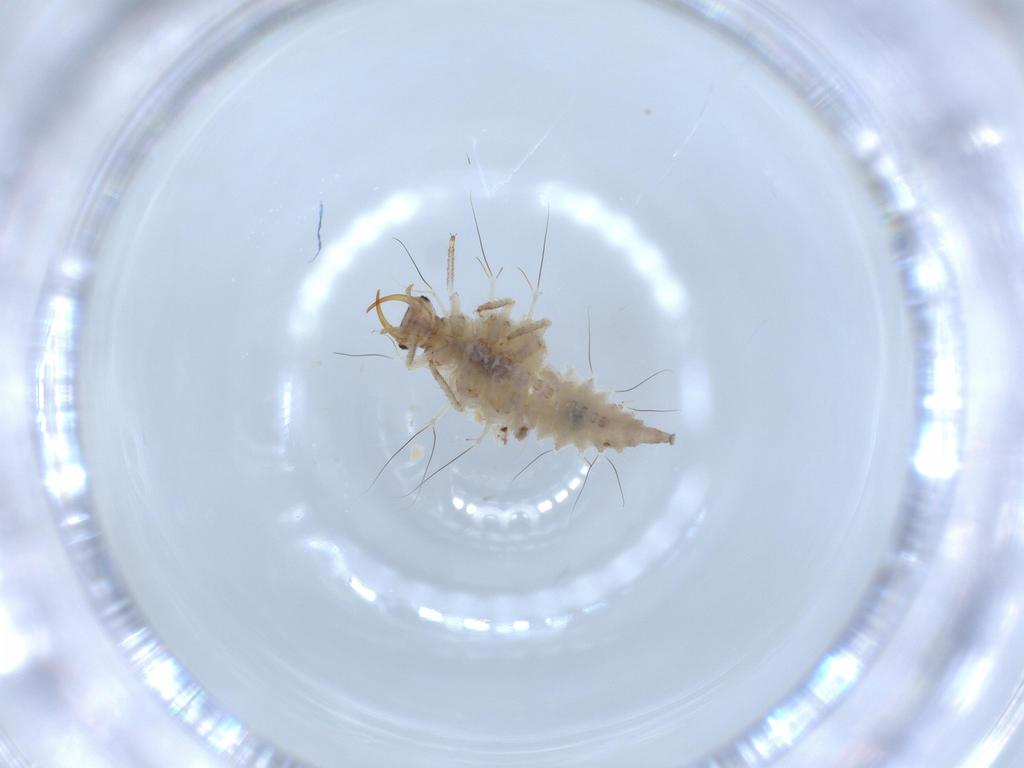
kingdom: Animalia
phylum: Arthropoda
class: Insecta
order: Neuroptera
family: Chrysopidae
